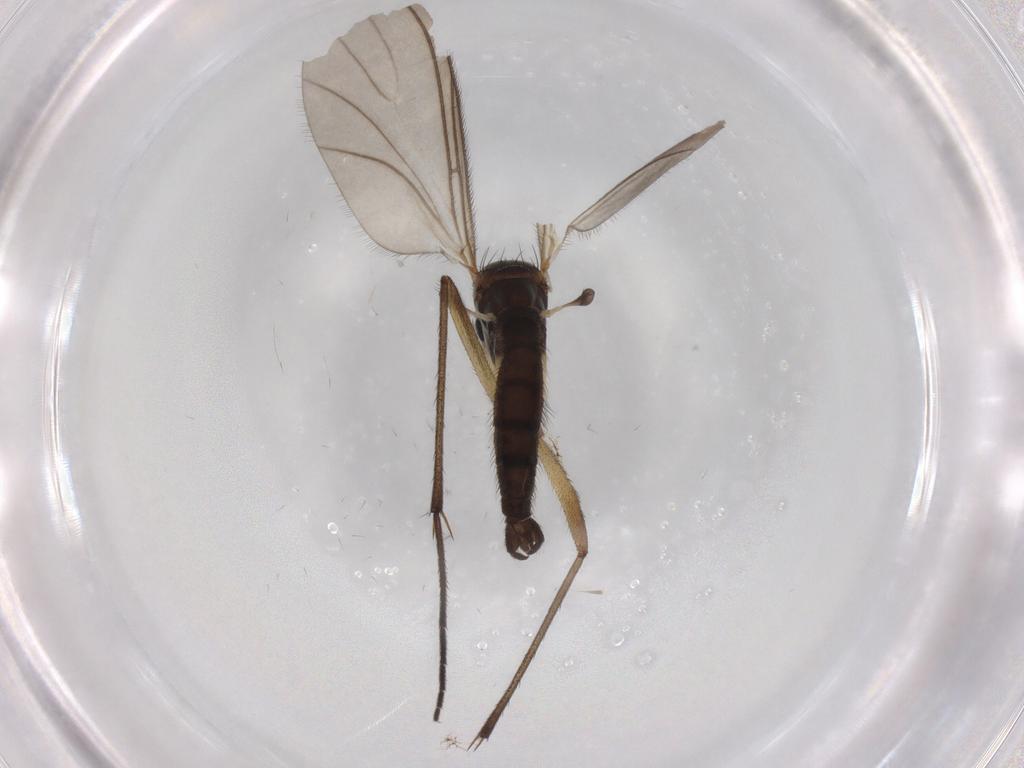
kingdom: Animalia
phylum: Arthropoda
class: Insecta
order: Diptera
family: Sciaridae
